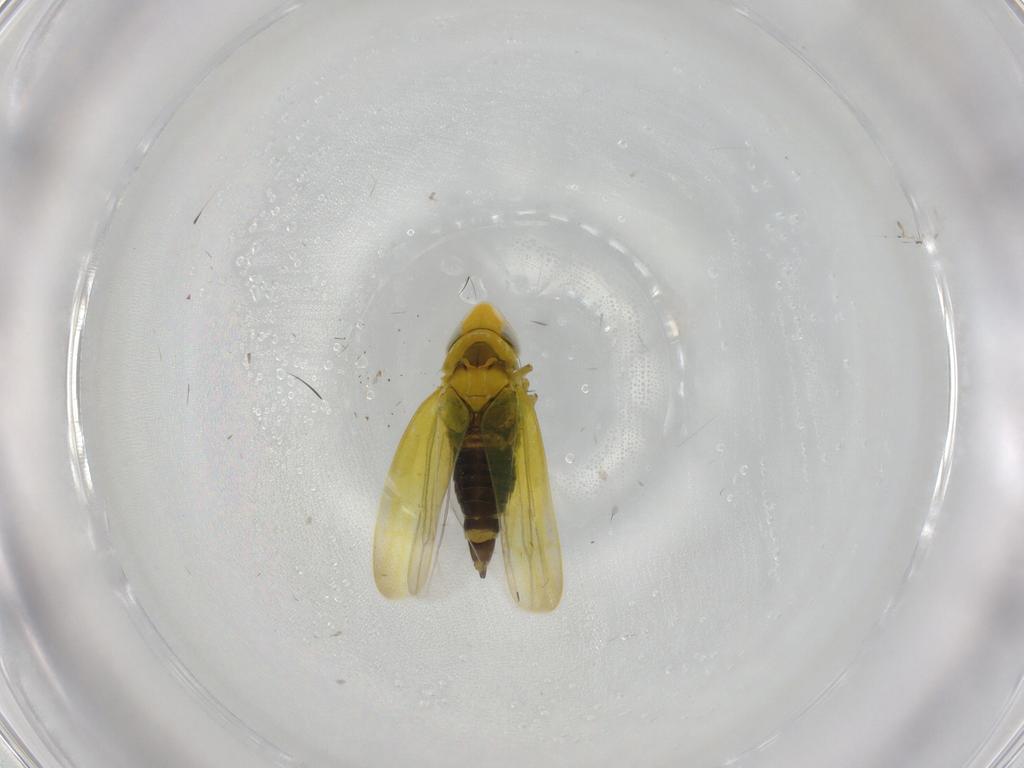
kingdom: Animalia
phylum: Arthropoda
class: Insecta
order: Hemiptera
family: Cicadellidae
